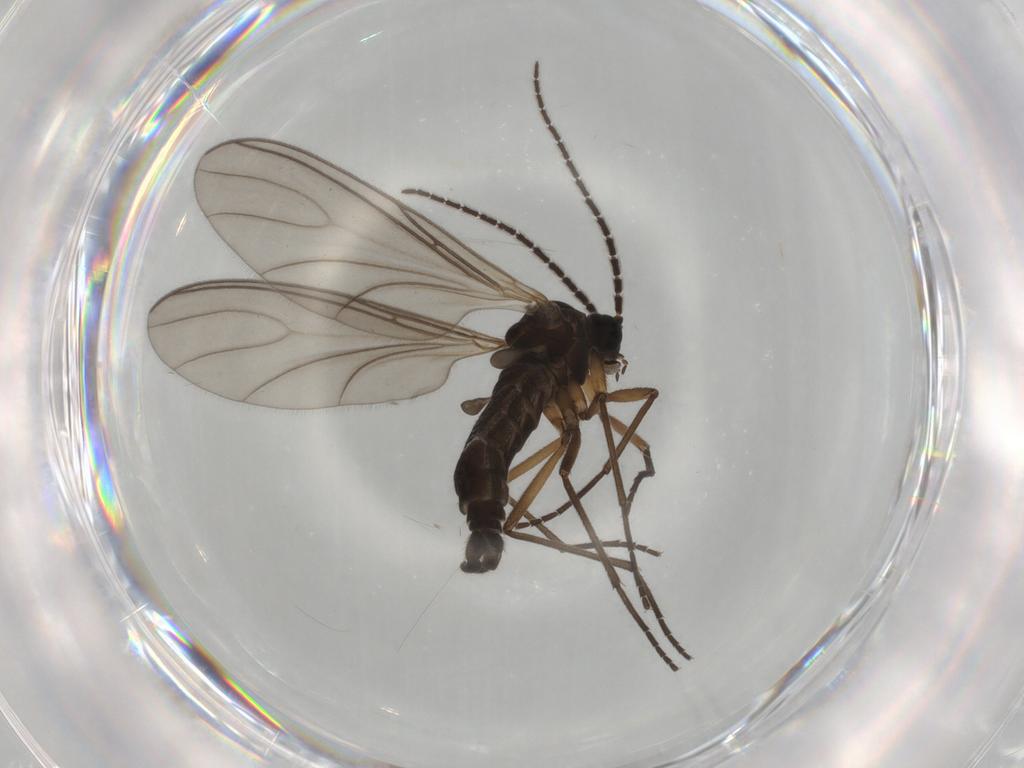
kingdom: Animalia
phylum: Arthropoda
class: Insecta
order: Diptera
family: Sciaridae
